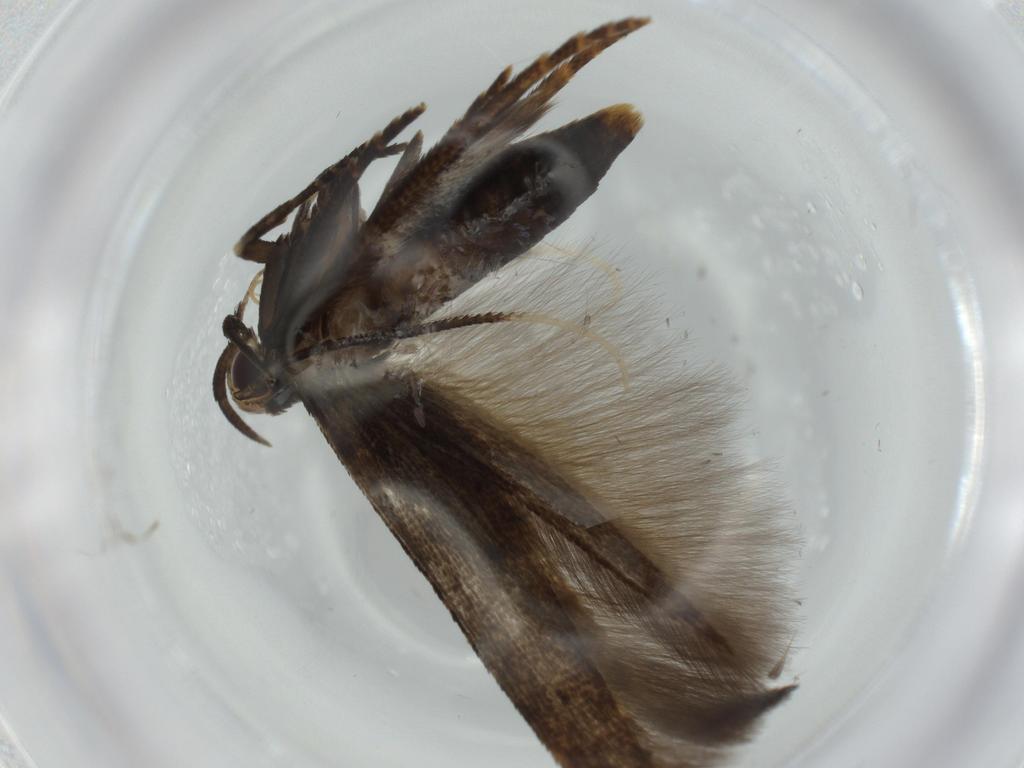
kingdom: Animalia
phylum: Arthropoda
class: Insecta
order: Lepidoptera
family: Cosmopterigidae
